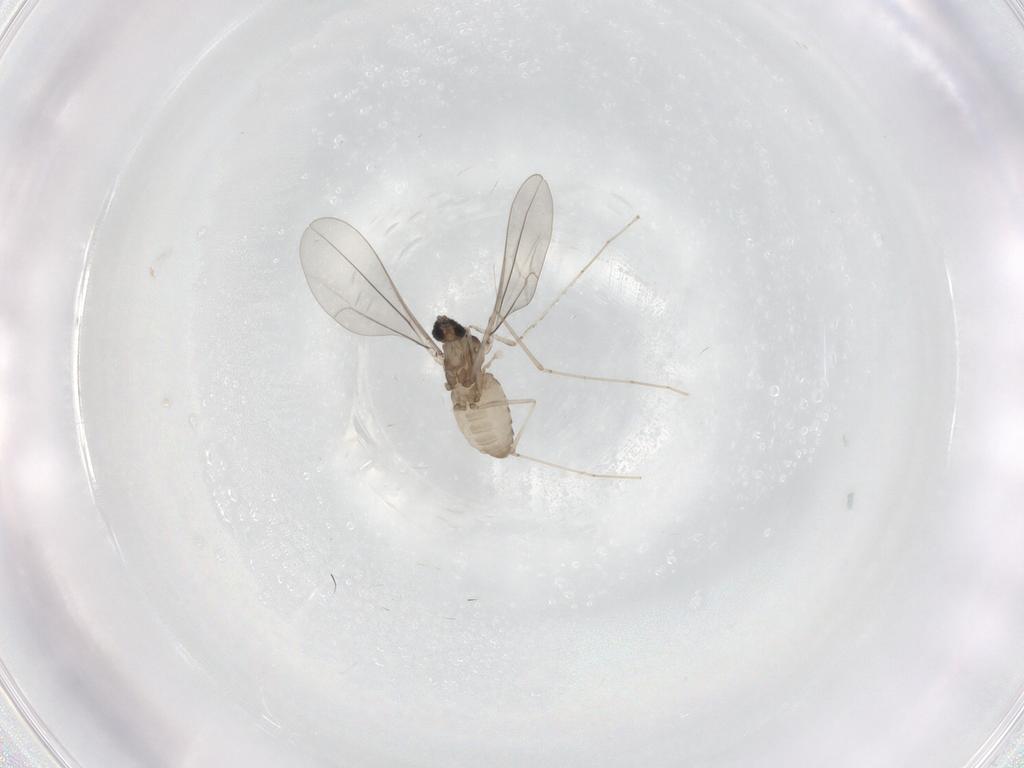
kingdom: Animalia
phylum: Arthropoda
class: Insecta
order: Diptera
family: Cecidomyiidae
